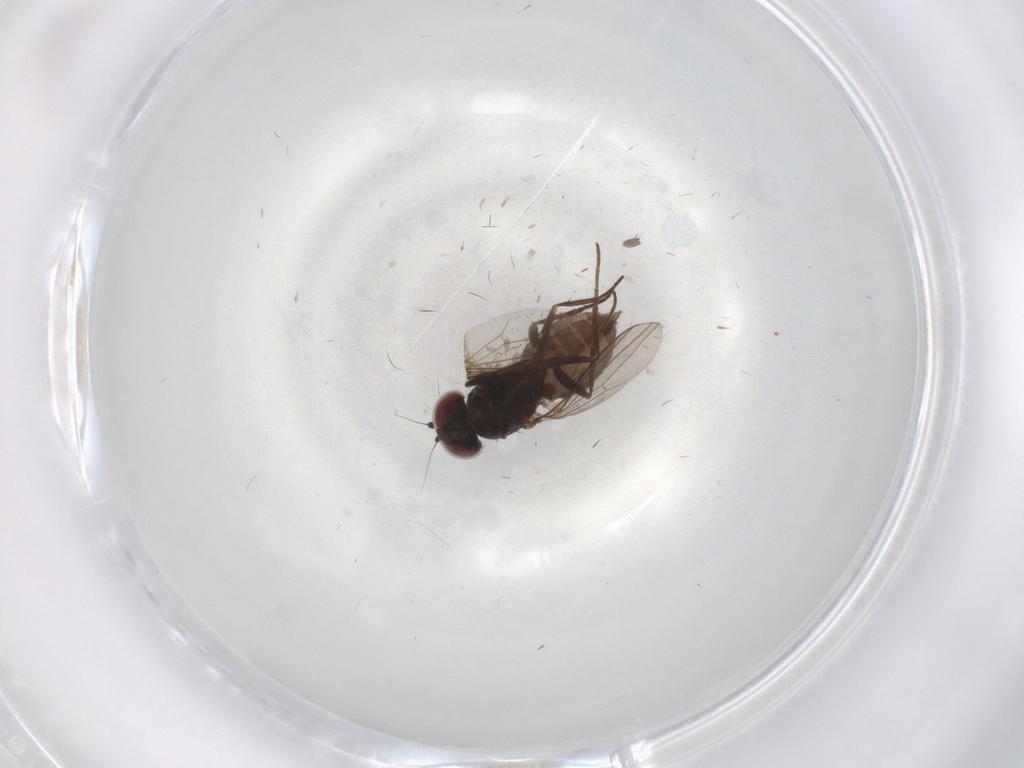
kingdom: Animalia
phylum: Arthropoda
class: Insecta
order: Diptera
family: Dolichopodidae
